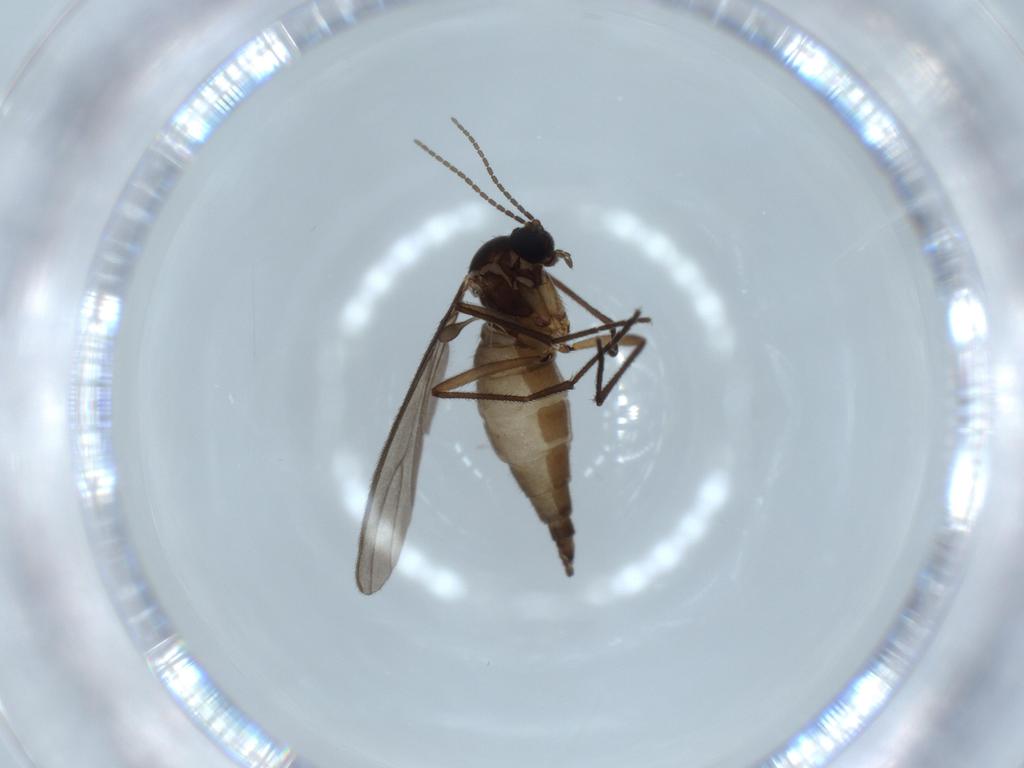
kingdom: Animalia
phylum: Arthropoda
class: Insecta
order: Diptera
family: Sciaridae
